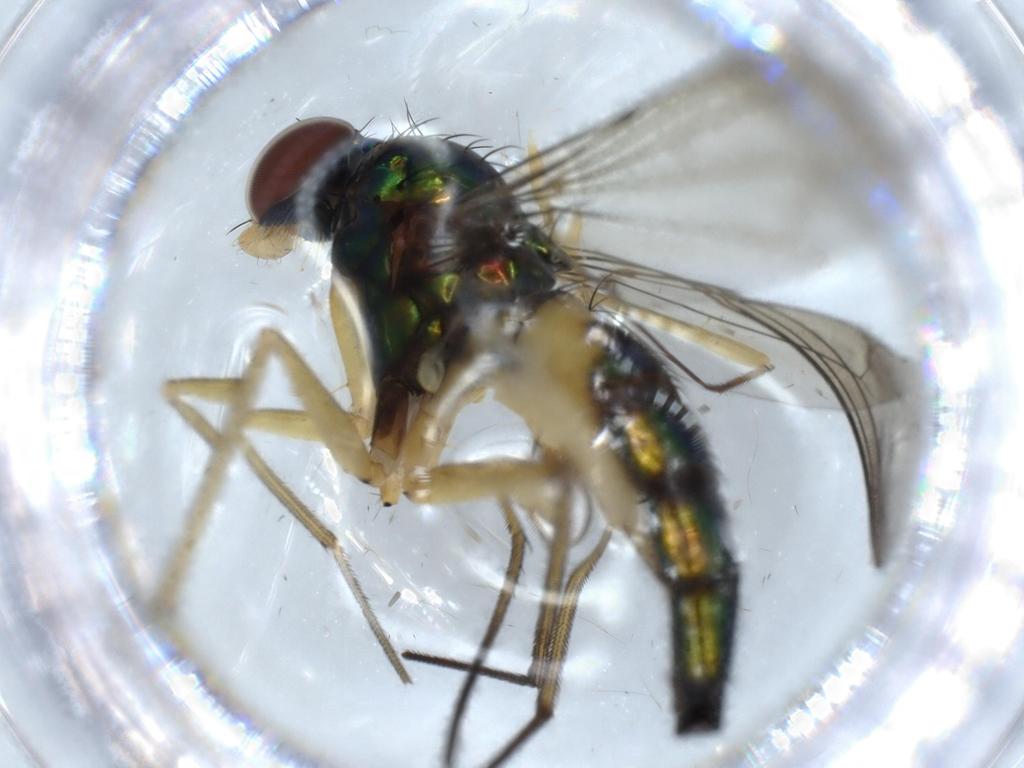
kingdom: Animalia
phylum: Arthropoda
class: Insecta
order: Diptera
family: Dolichopodidae
